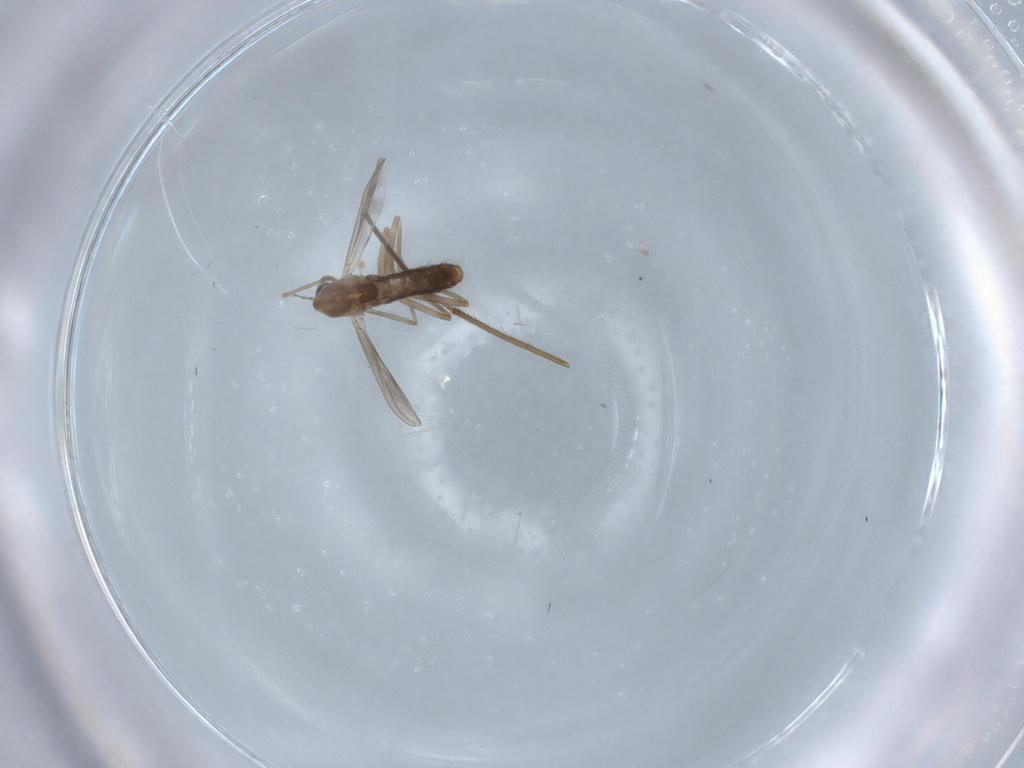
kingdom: Animalia
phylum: Arthropoda
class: Insecta
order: Diptera
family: Chironomidae
